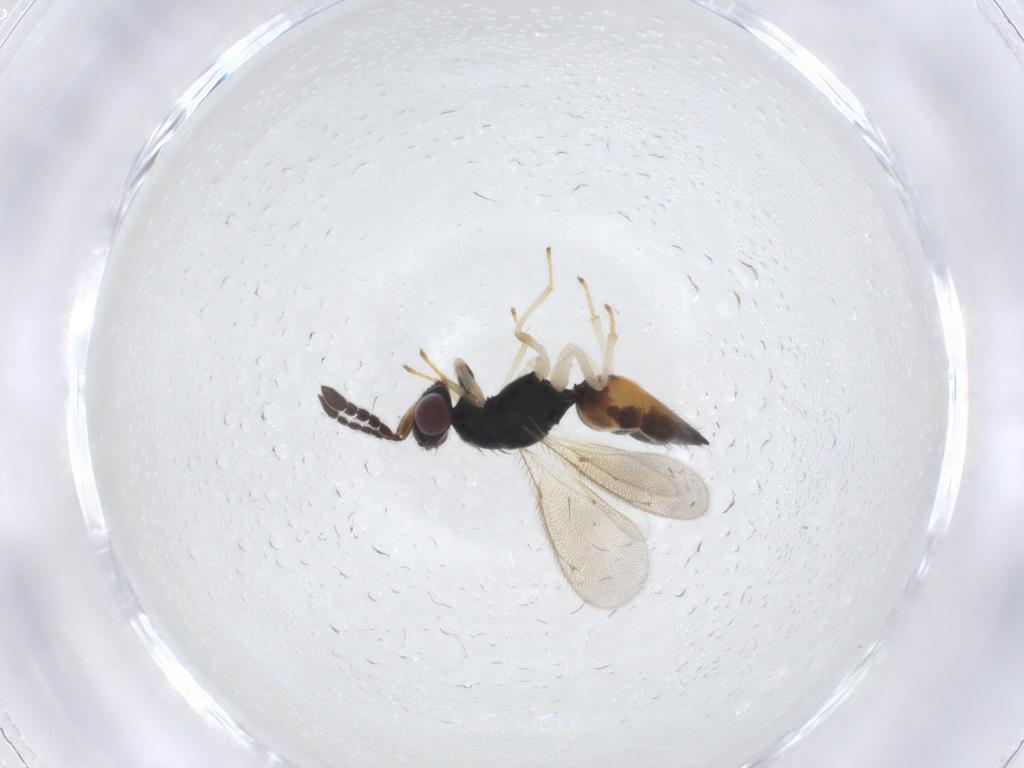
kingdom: Animalia
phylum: Arthropoda
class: Insecta
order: Hymenoptera
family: Eulophidae
